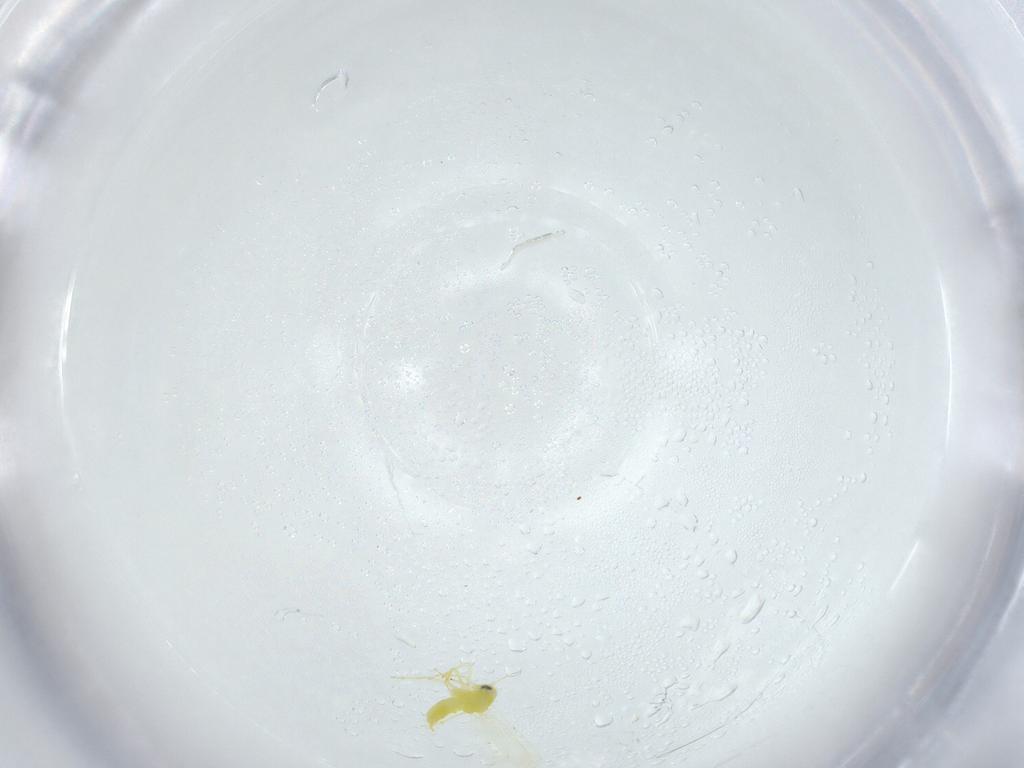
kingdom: Animalia
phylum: Arthropoda
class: Insecta
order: Hemiptera
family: Aleyrodidae
